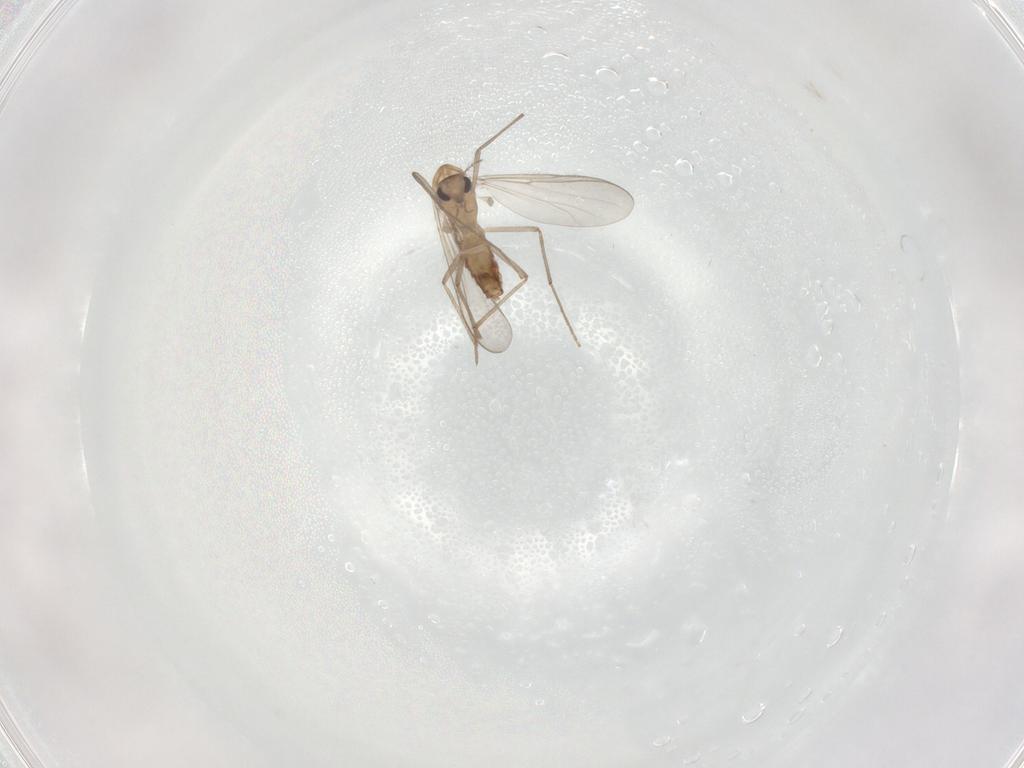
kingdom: Animalia
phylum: Arthropoda
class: Insecta
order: Diptera
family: Chironomidae
